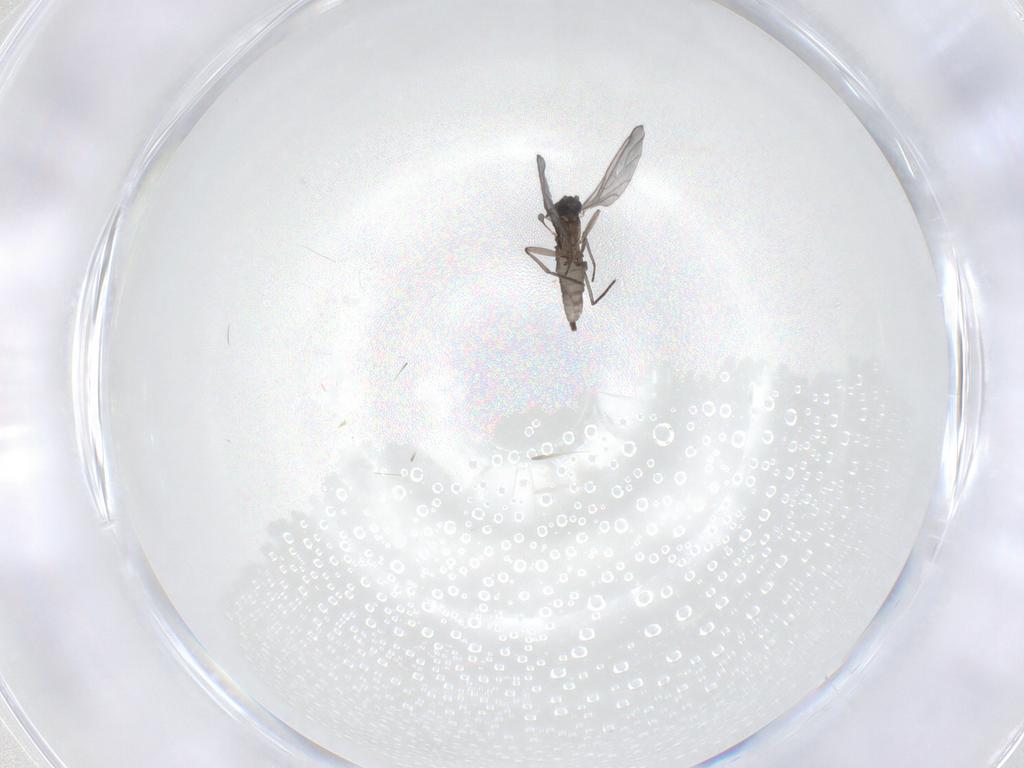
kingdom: Animalia
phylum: Arthropoda
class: Insecta
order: Diptera
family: Sciaridae
